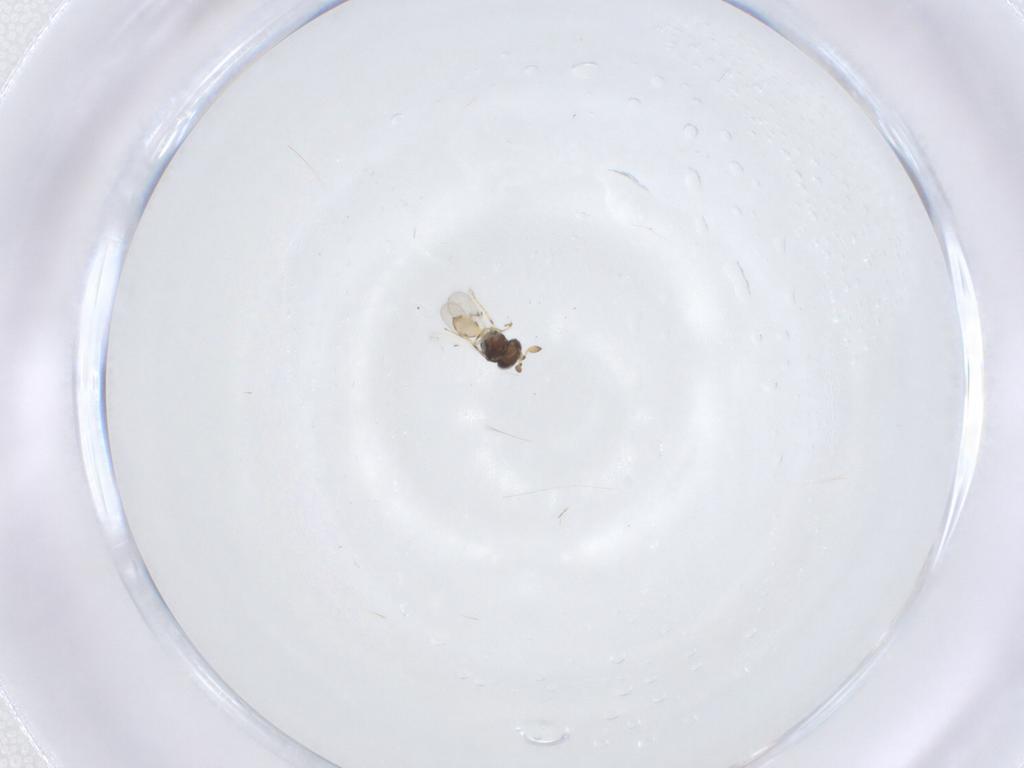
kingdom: Animalia
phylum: Arthropoda
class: Insecta
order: Hymenoptera
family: Scelionidae
